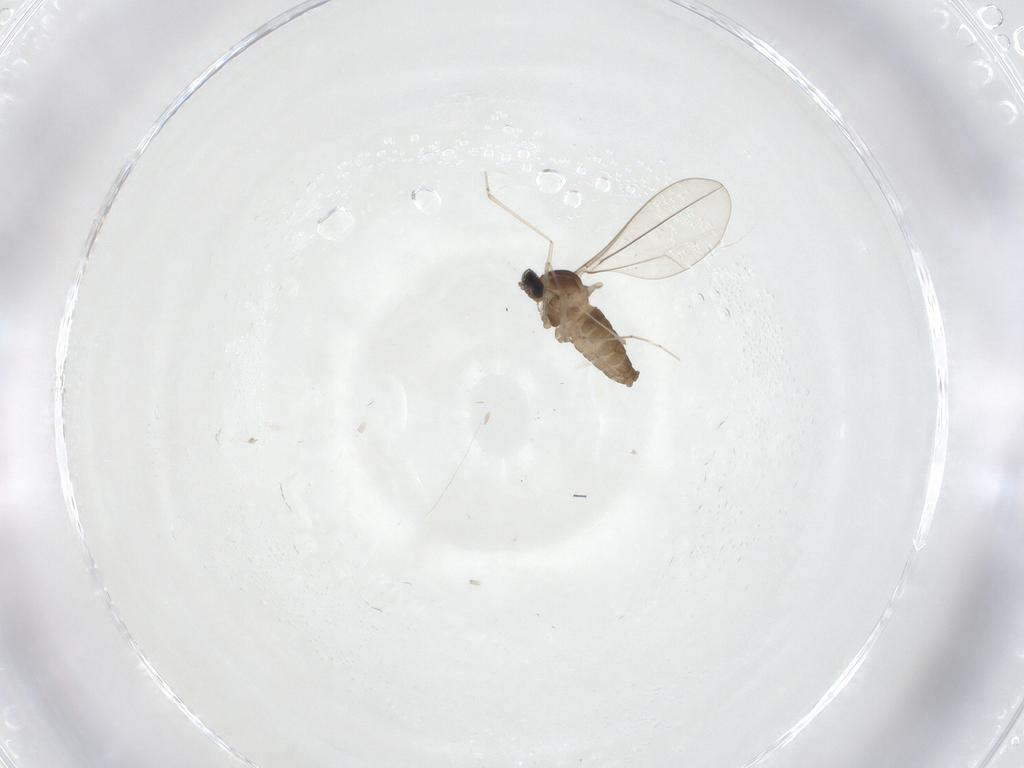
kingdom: Animalia
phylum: Arthropoda
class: Insecta
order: Diptera
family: Cecidomyiidae
